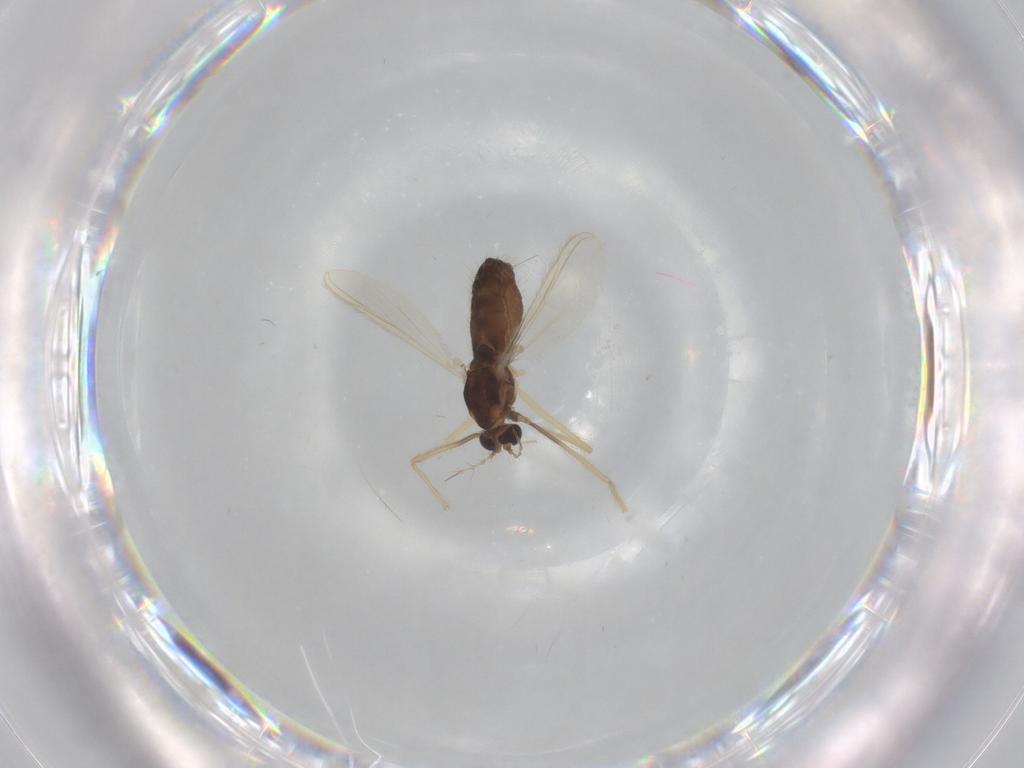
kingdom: Animalia
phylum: Arthropoda
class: Insecta
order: Diptera
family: Chironomidae
